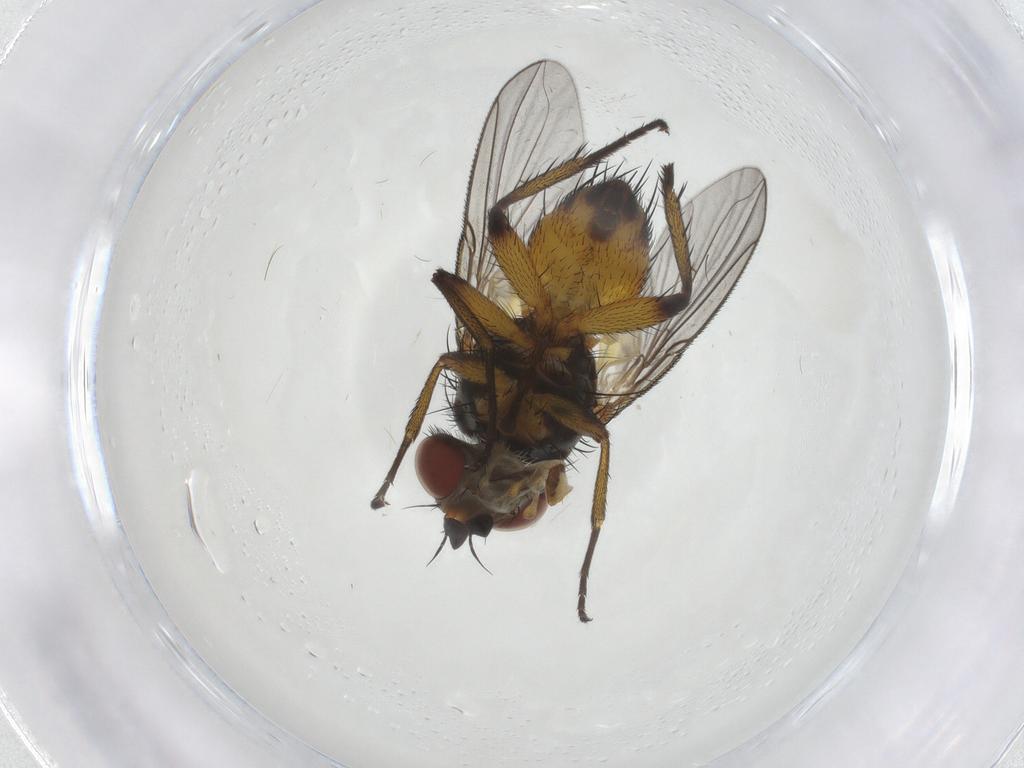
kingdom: Animalia
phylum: Arthropoda
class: Insecta
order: Diptera
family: Tachinidae
